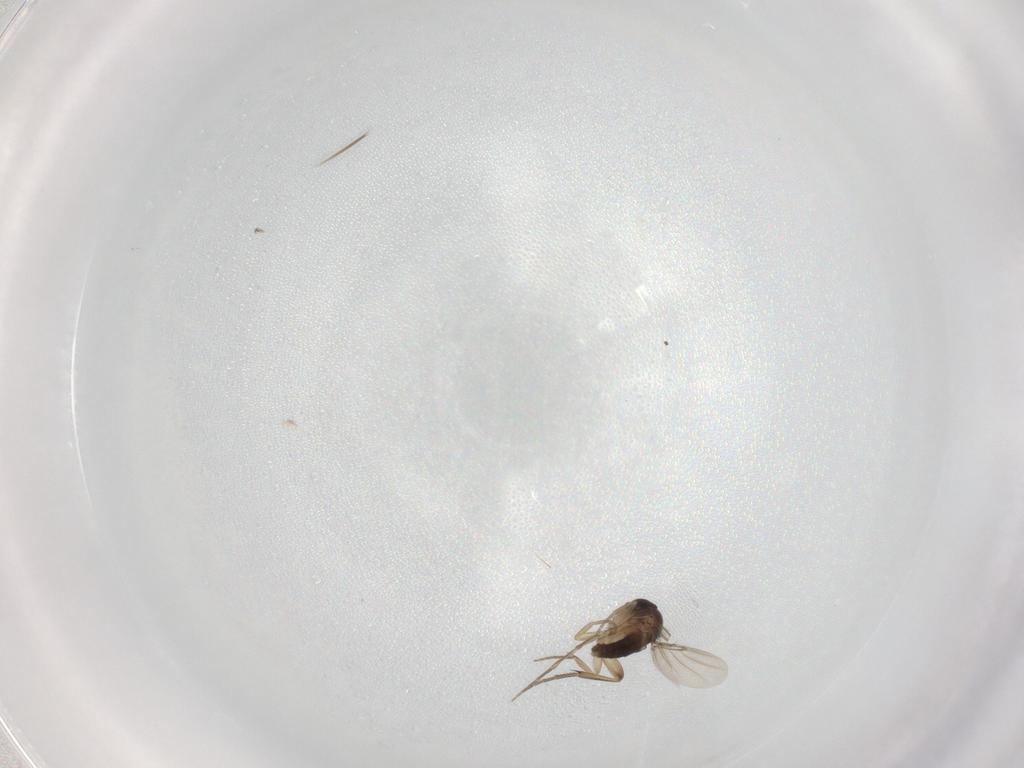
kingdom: Animalia
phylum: Arthropoda
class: Insecta
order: Diptera
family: Phoridae
